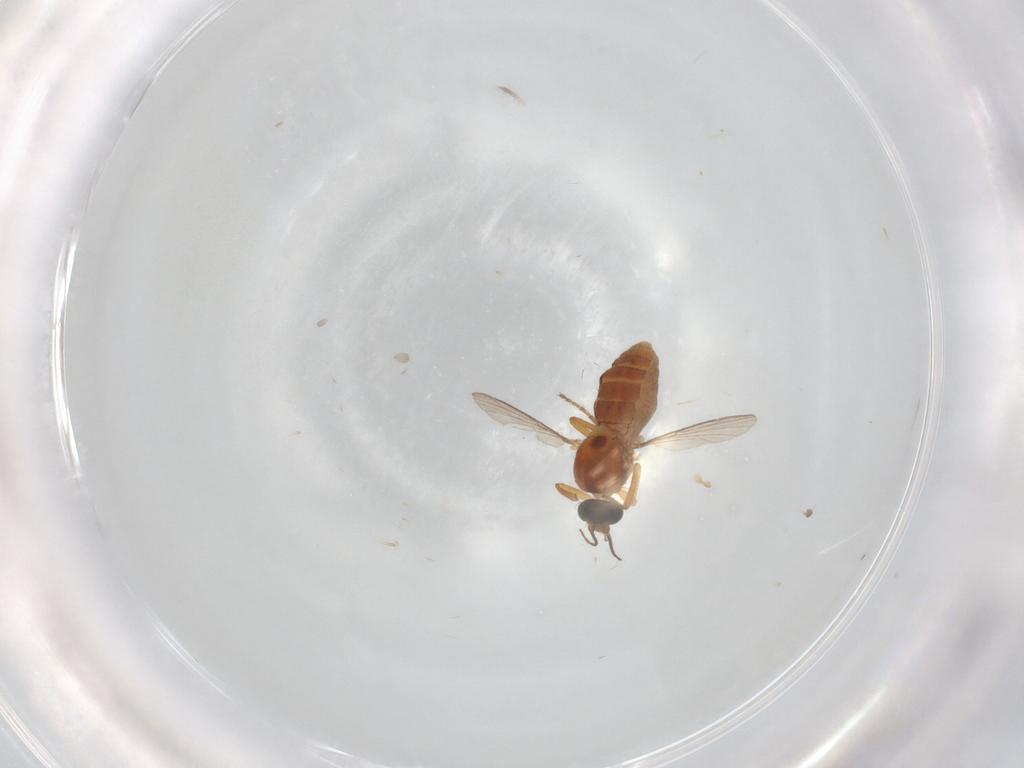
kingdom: Animalia
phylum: Arthropoda
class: Insecta
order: Diptera
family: Ceratopogonidae
